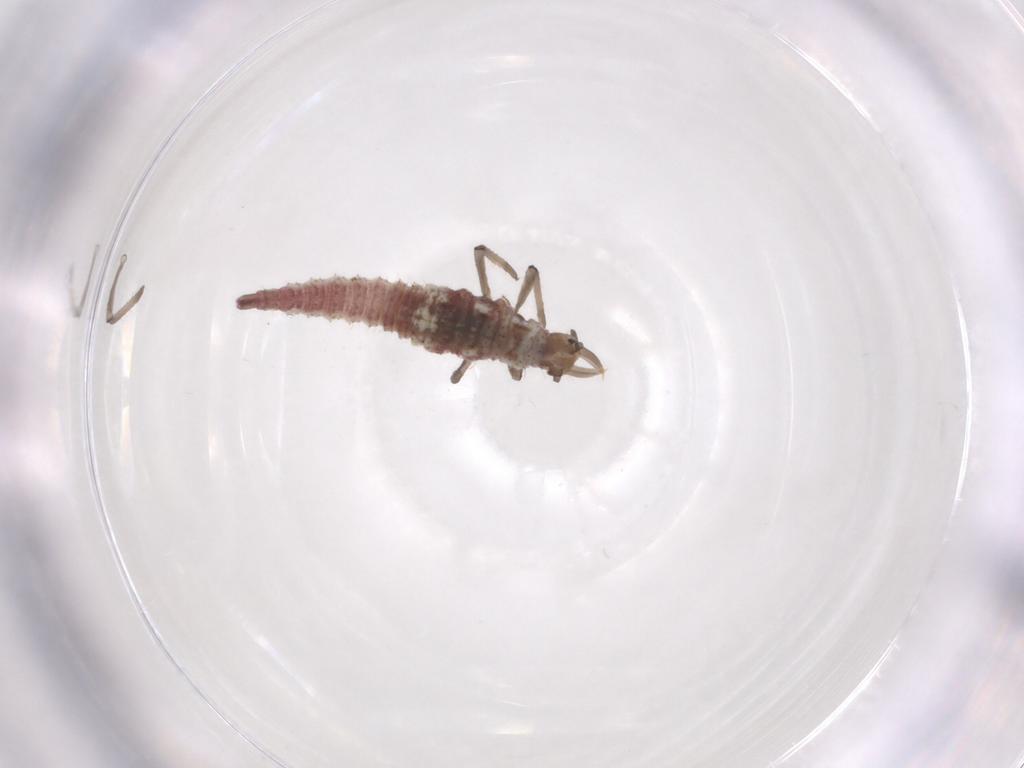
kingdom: Animalia
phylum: Arthropoda
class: Insecta
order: Neuroptera
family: Hemerobiidae
